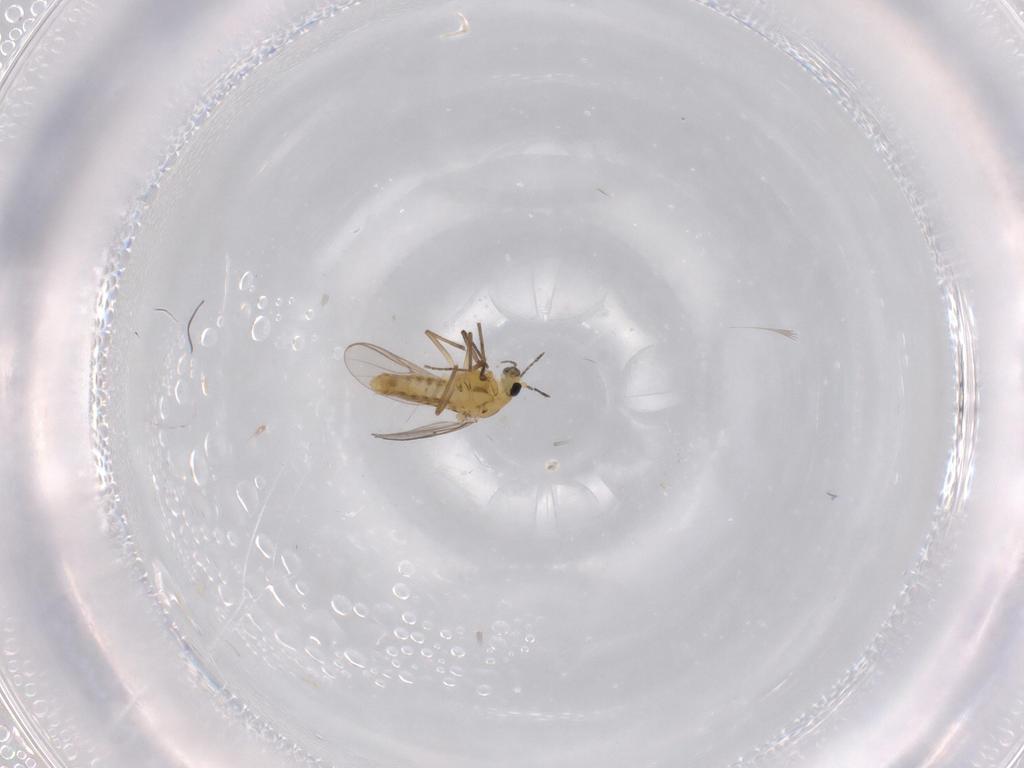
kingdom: Animalia
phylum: Arthropoda
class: Insecta
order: Diptera
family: Chironomidae
